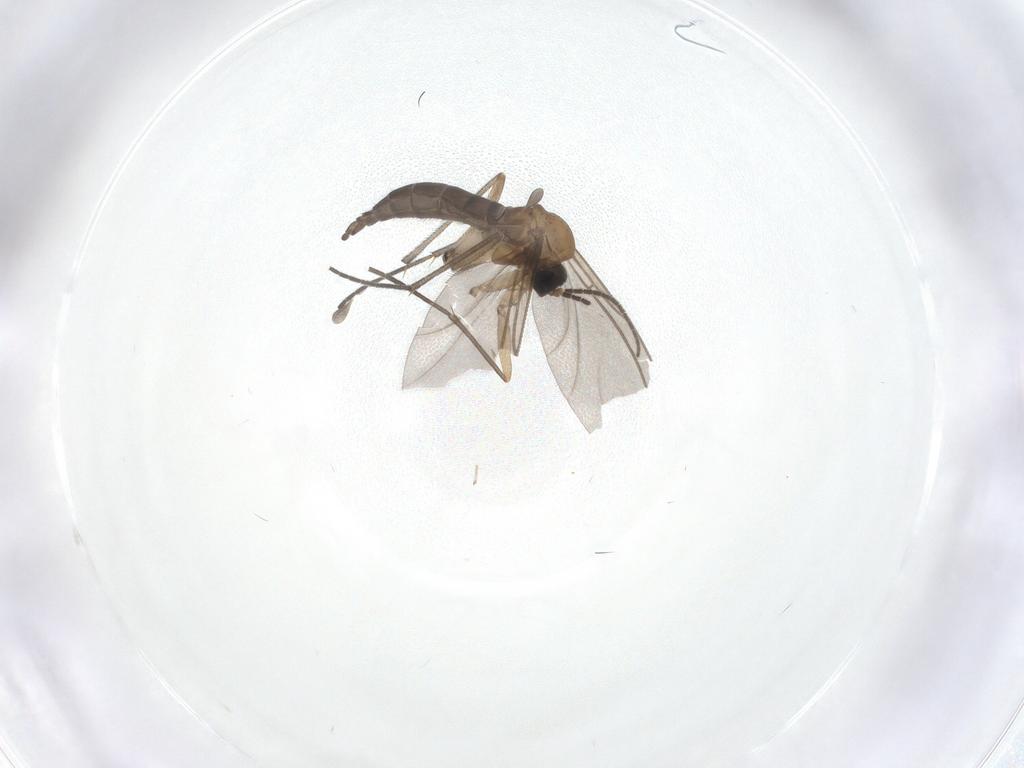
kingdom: Animalia
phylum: Arthropoda
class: Insecta
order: Diptera
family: Sciaridae
